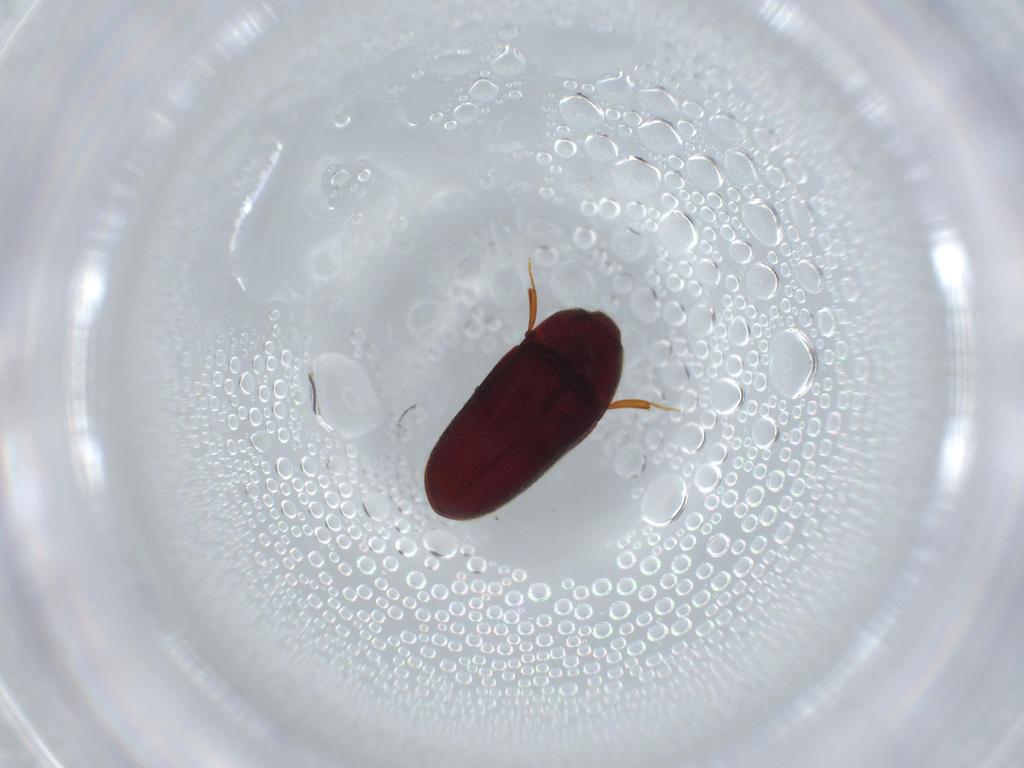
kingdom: Animalia
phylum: Arthropoda
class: Insecta
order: Coleoptera
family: Throscidae
